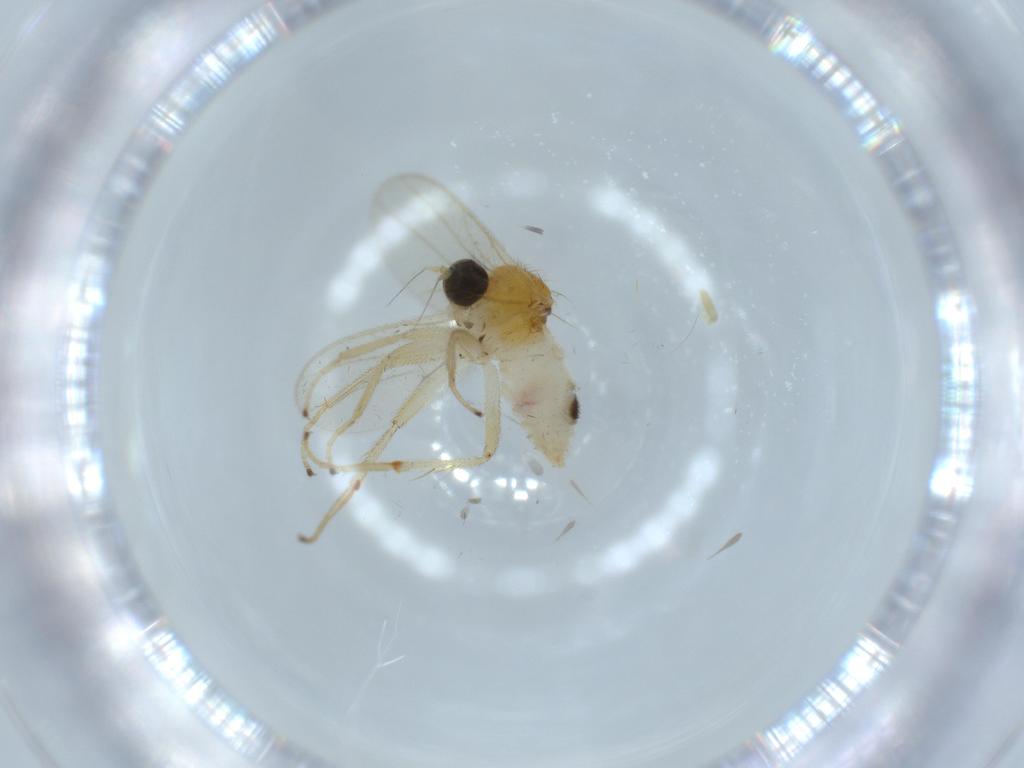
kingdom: Animalia
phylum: Arthropoda
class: Insecta
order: Diptera
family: Hybotidae
